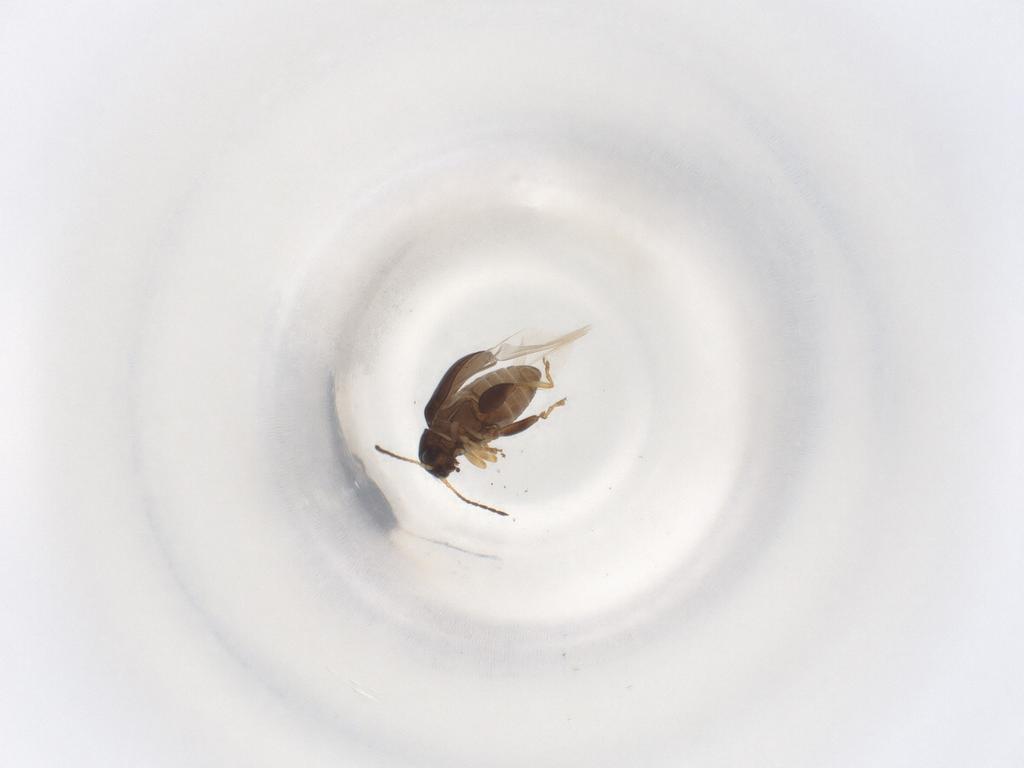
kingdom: Animalia
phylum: Arthropoda
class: Insecta
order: Coleoptera
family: Chrysomelidae
